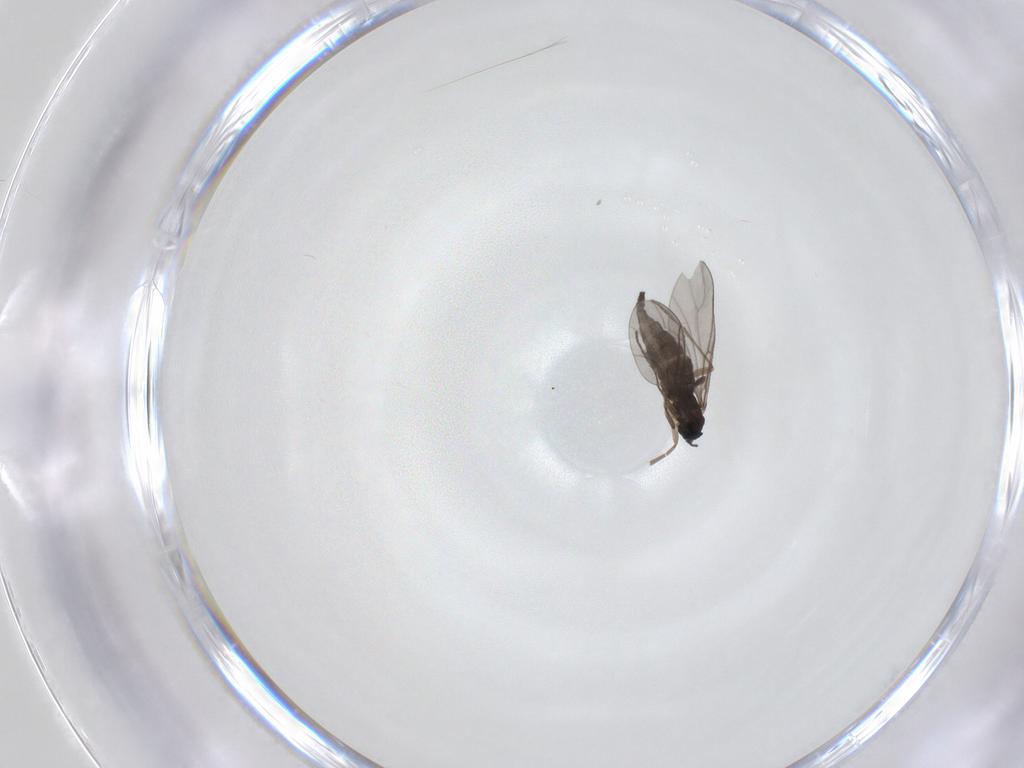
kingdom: Animalia
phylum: Arthropoda
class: Insecta
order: Diptera
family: Sciaridae
